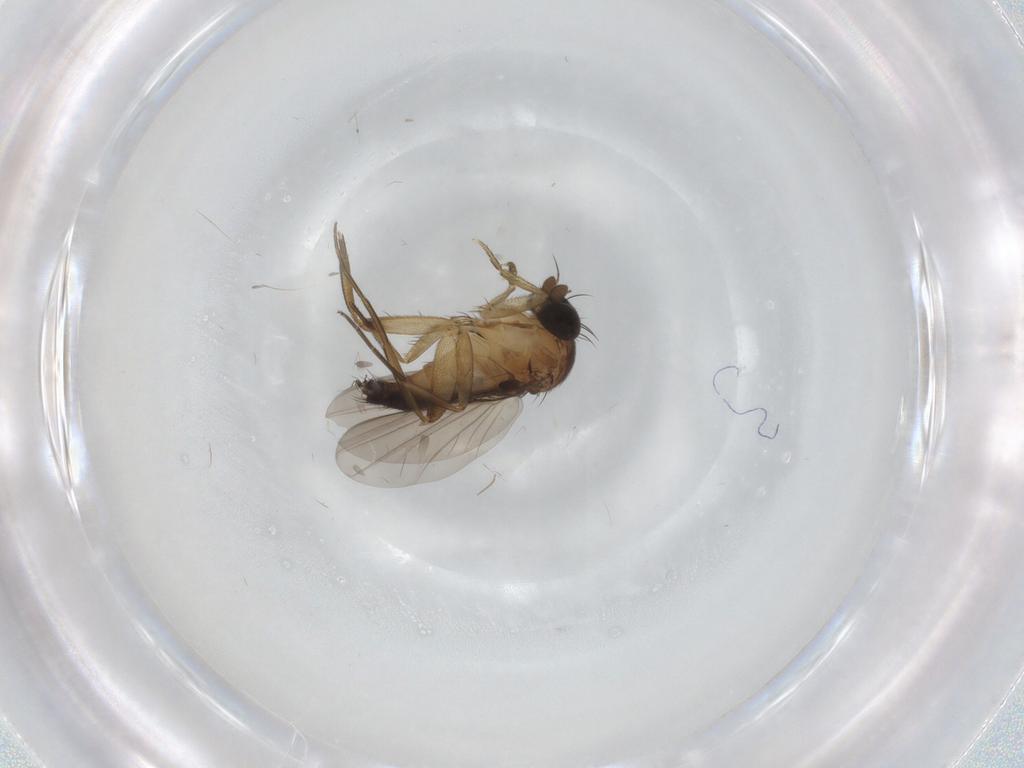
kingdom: Animalia
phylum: Arthropoda
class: Insecta
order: Diptera
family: Phoridae
